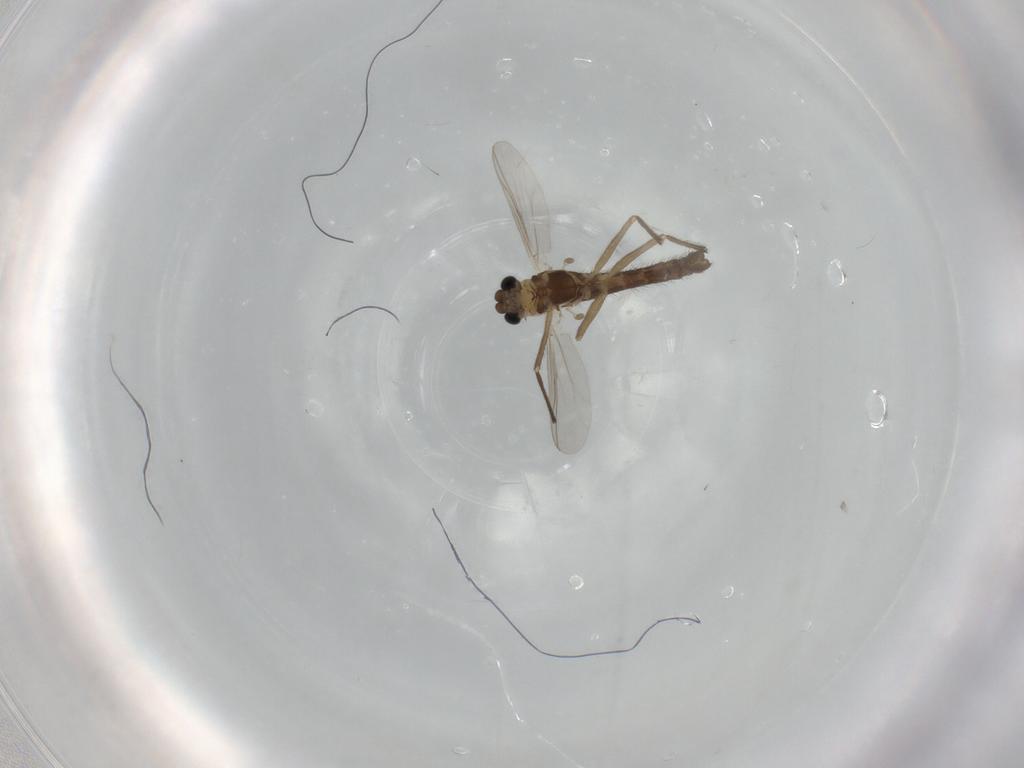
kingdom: Animalia
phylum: Arthropoda
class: Insecta
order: Diptera
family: Chironomidae
